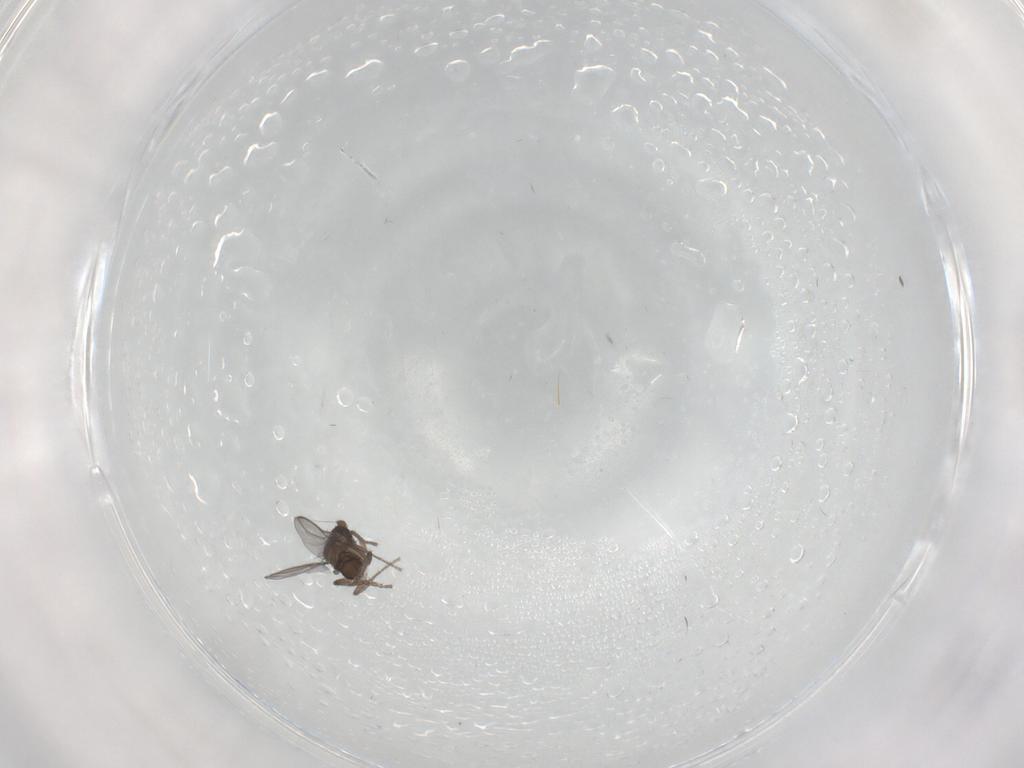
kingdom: Animalia
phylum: Arthropoda
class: Insecta
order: Diptera
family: Sphaeroceridae
